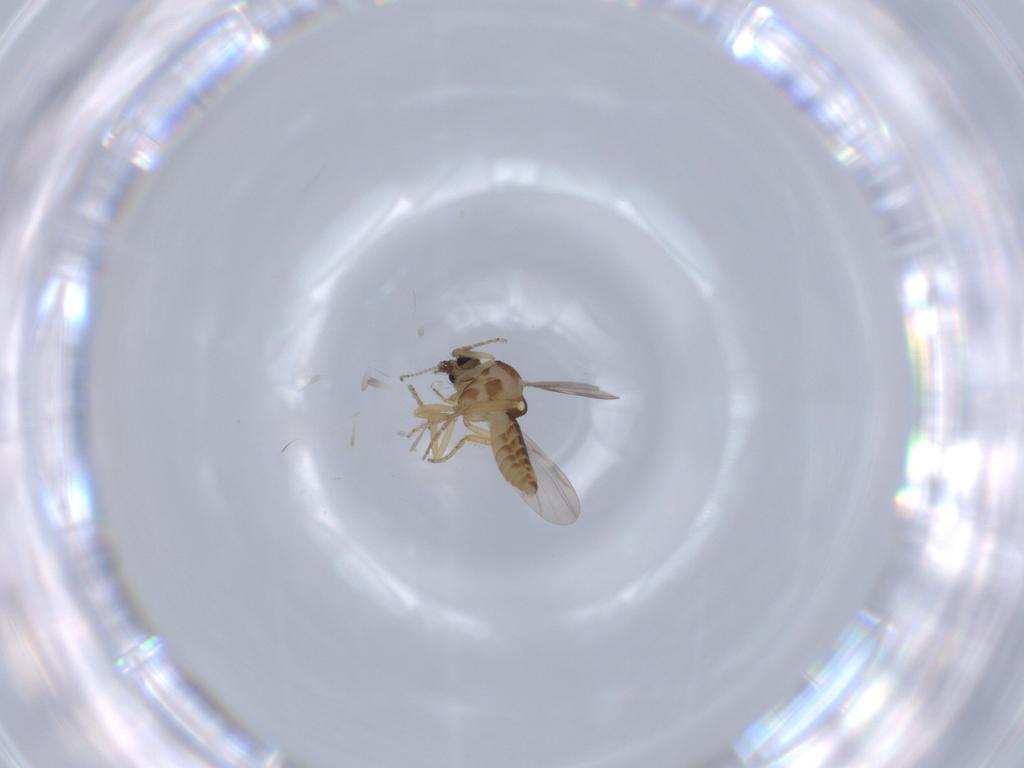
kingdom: Animalia
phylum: Arthropoda
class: Insecta
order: Diptera
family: Ceratopogonidae
